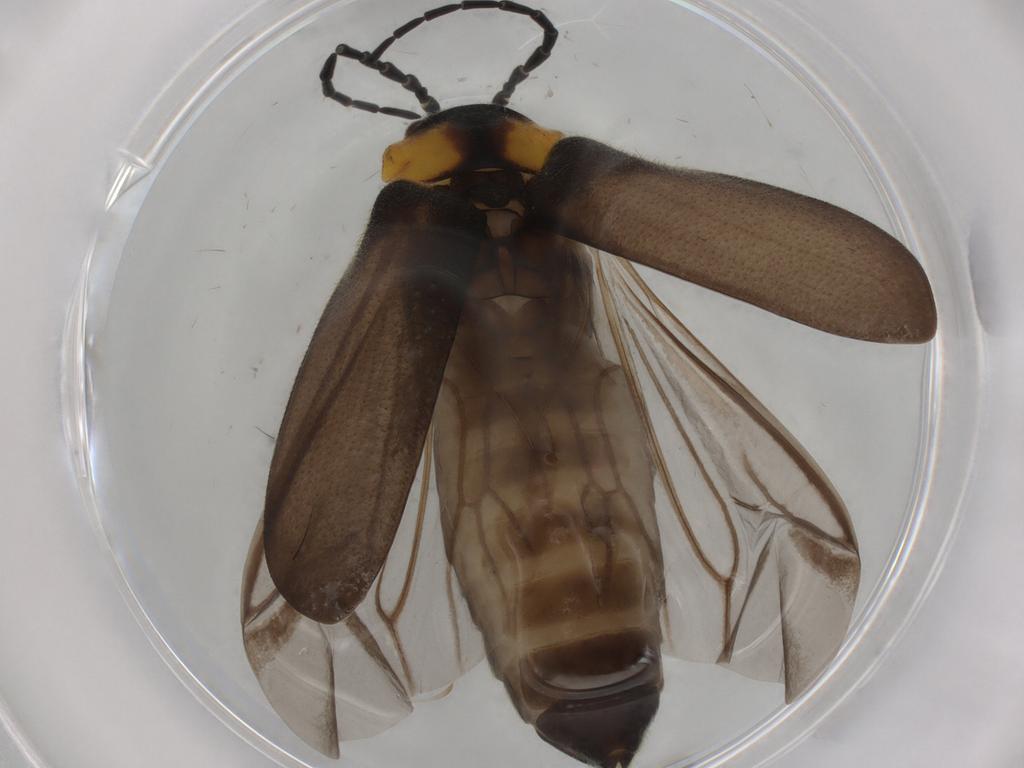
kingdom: Animalia
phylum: Arthropoda
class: Insecta
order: Coleoptera
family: Cantharidae
